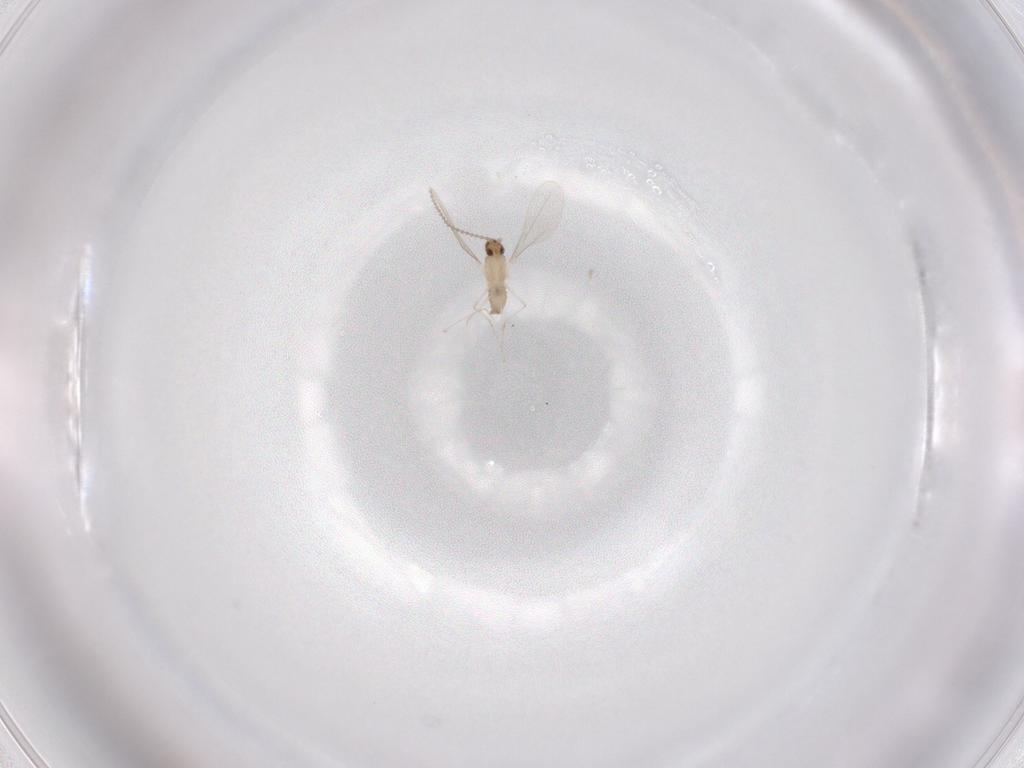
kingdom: Animalia
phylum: Arthropoda
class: Insecta
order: Diptera
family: Cecidomyiidae
